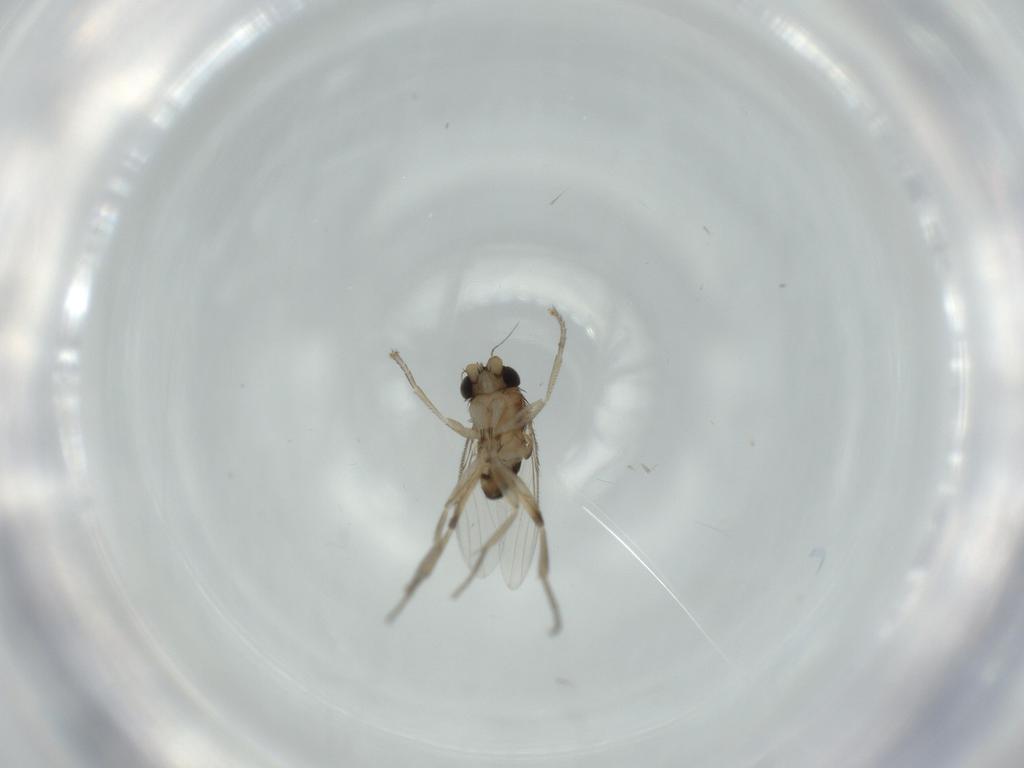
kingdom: Animalia
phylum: Arthropoda
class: Insecta
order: Diptera
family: Phoridae
